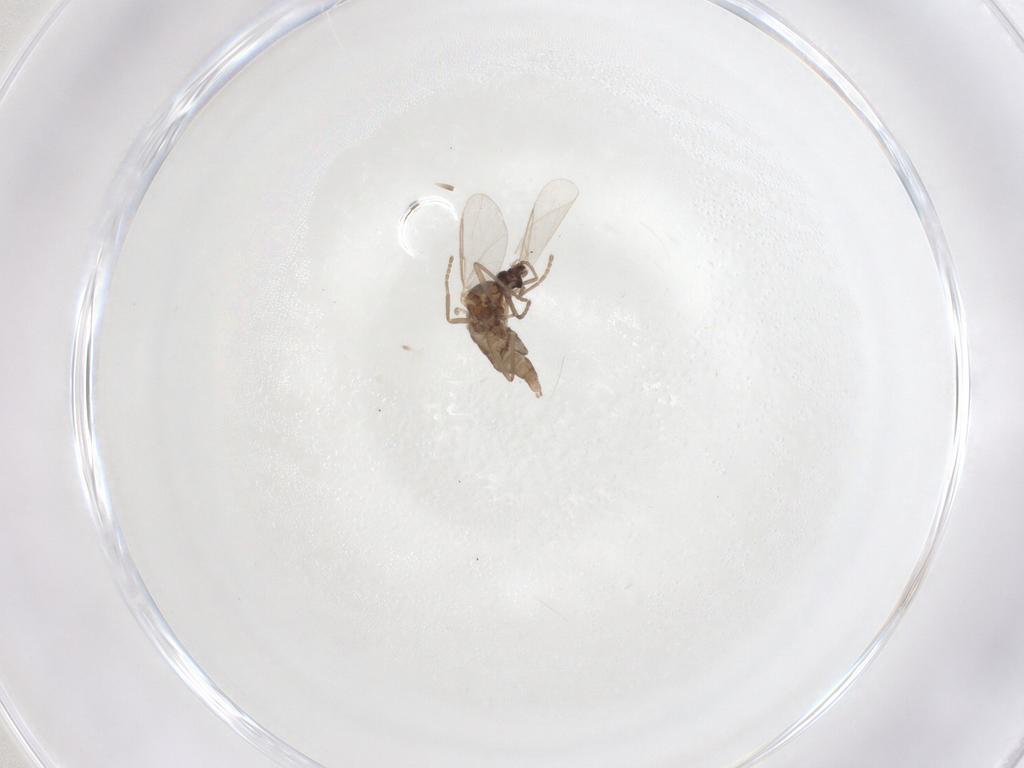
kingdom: Animalia
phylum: Arthropoda
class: Insecta
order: Diptera
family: Cecidomyiidae
